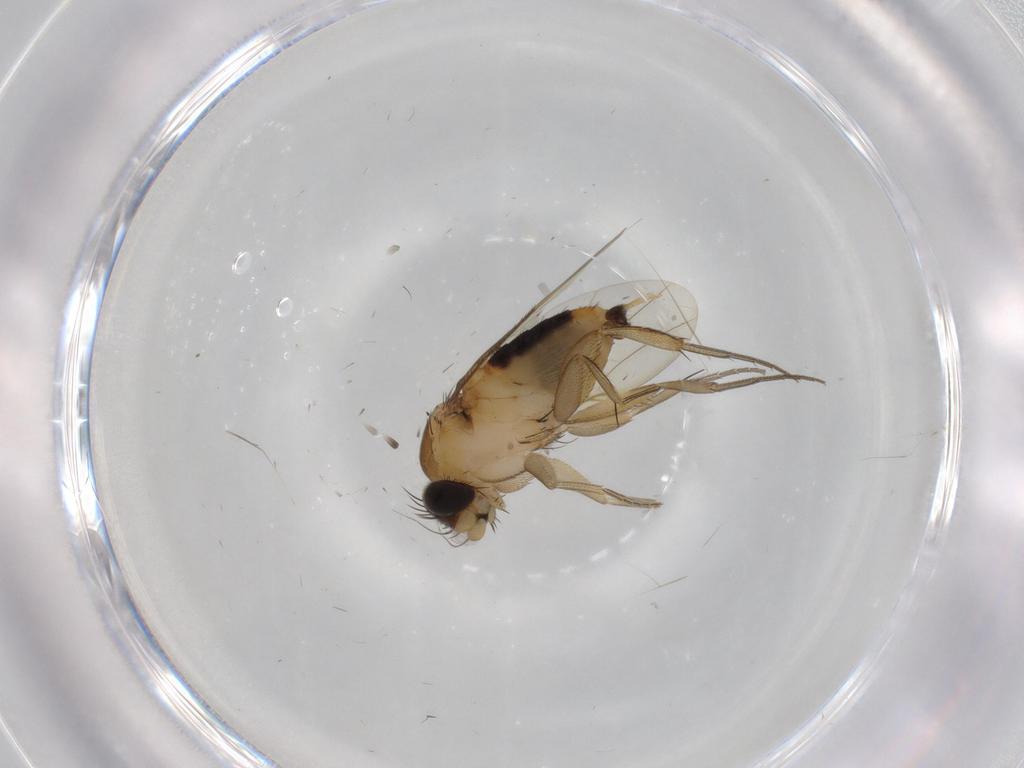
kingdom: Animalia
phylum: Arthropoda
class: Insecta
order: Diptera
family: Phoridae
